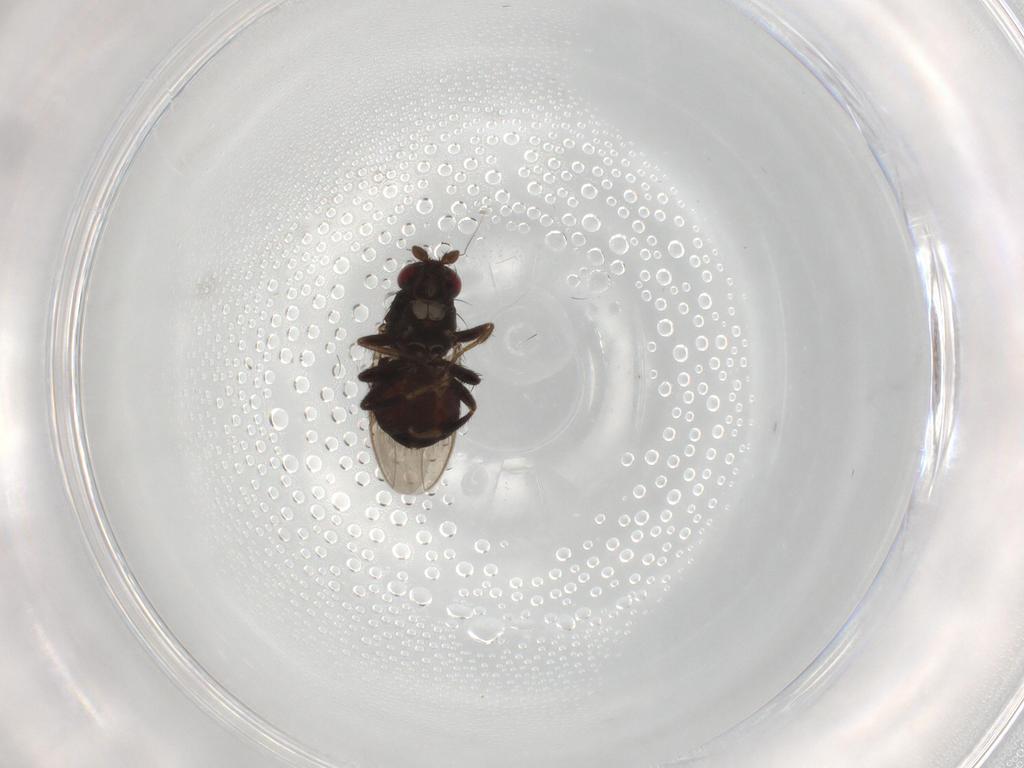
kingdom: Animalia
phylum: Arthropoda
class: Insecta
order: Diptera
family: Sphaeroceridae
